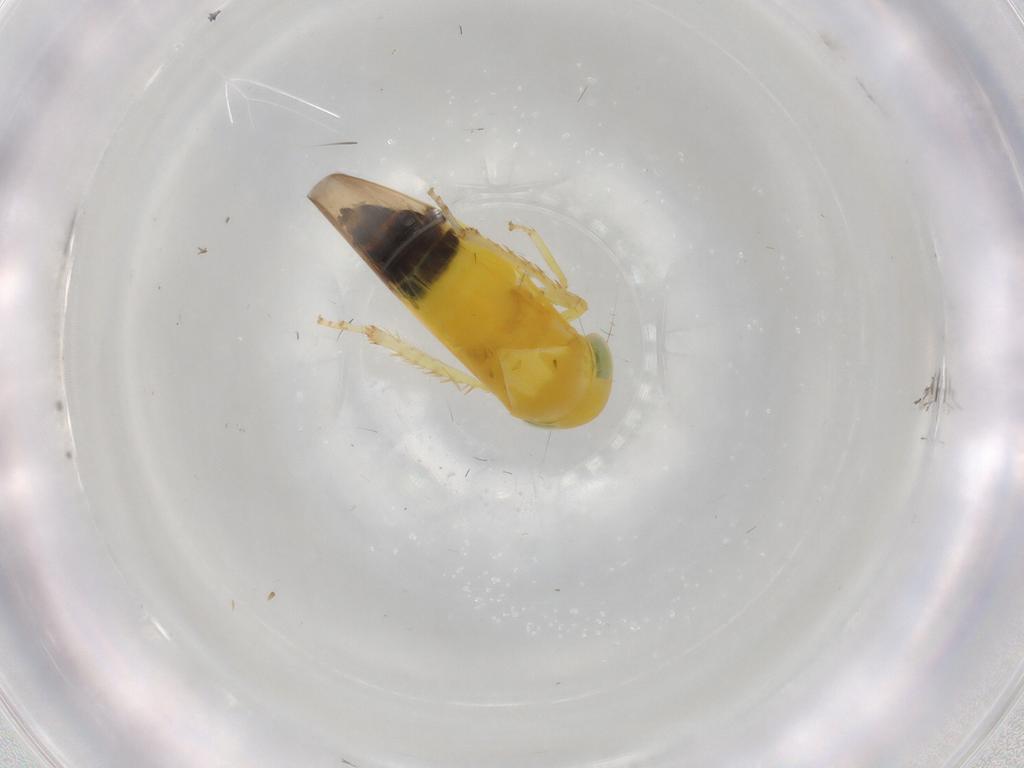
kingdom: Animalia
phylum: Arthropoda
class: Insecta
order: Hemiptera
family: Cicadellidae
